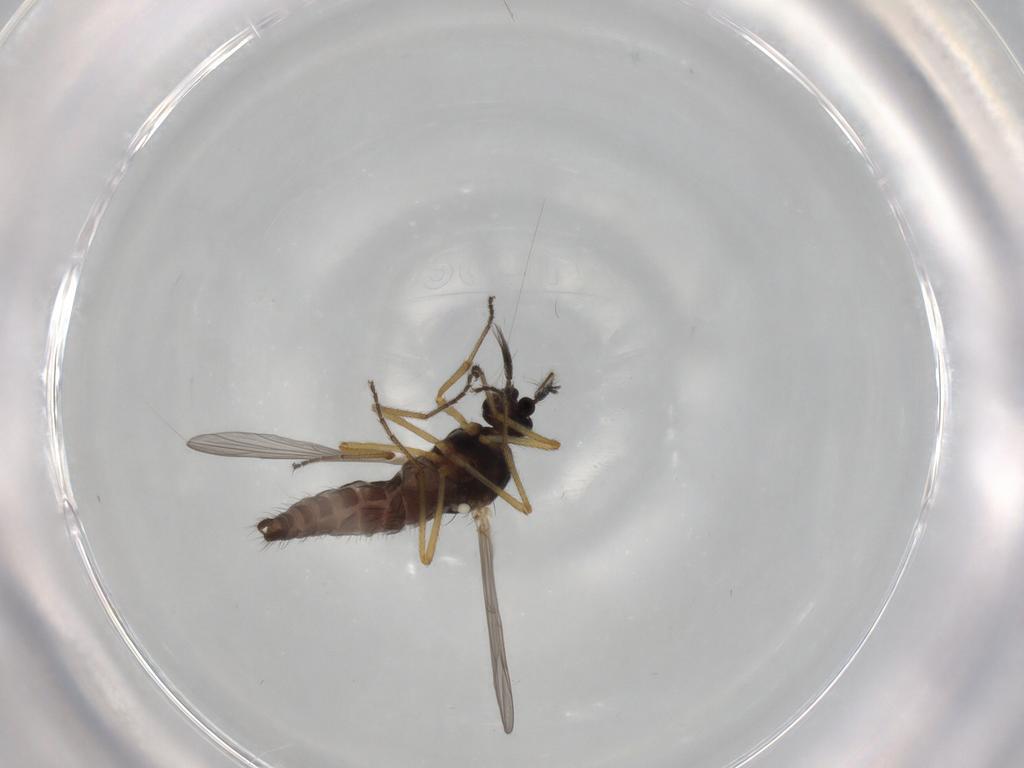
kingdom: Animalia
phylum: Arthropoda
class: Insecta
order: Diptera
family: Ceratopogonidae
